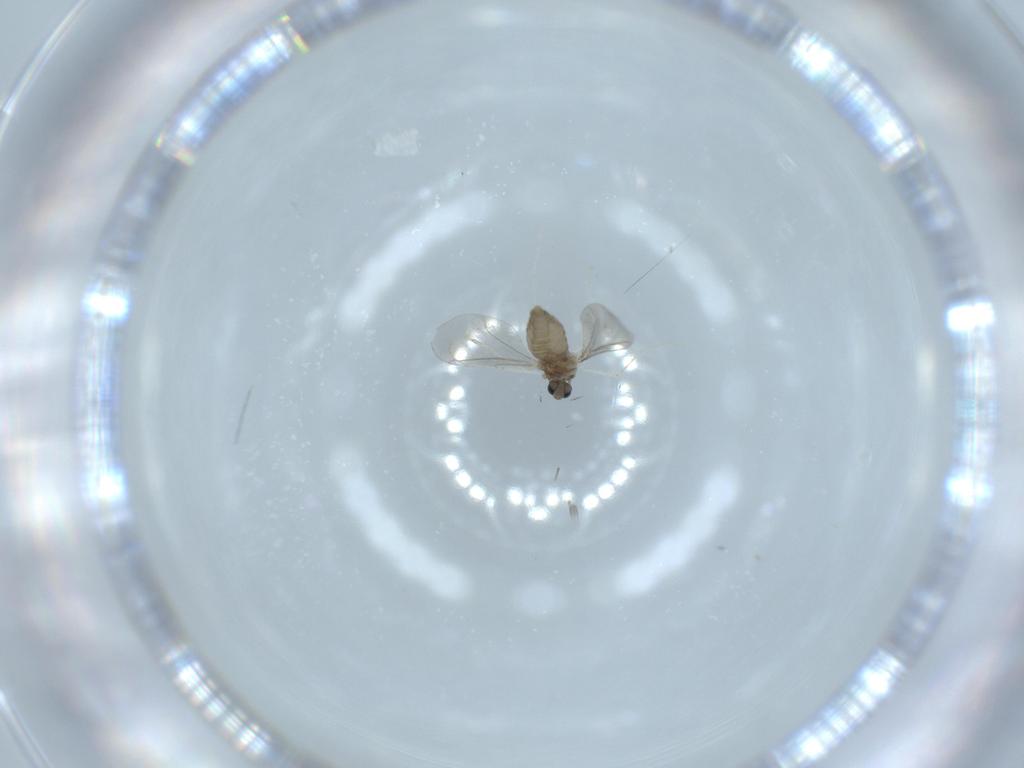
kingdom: Animalia
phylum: Arthropoda
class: Insecta
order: Diptera
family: Cecidomyiidae
